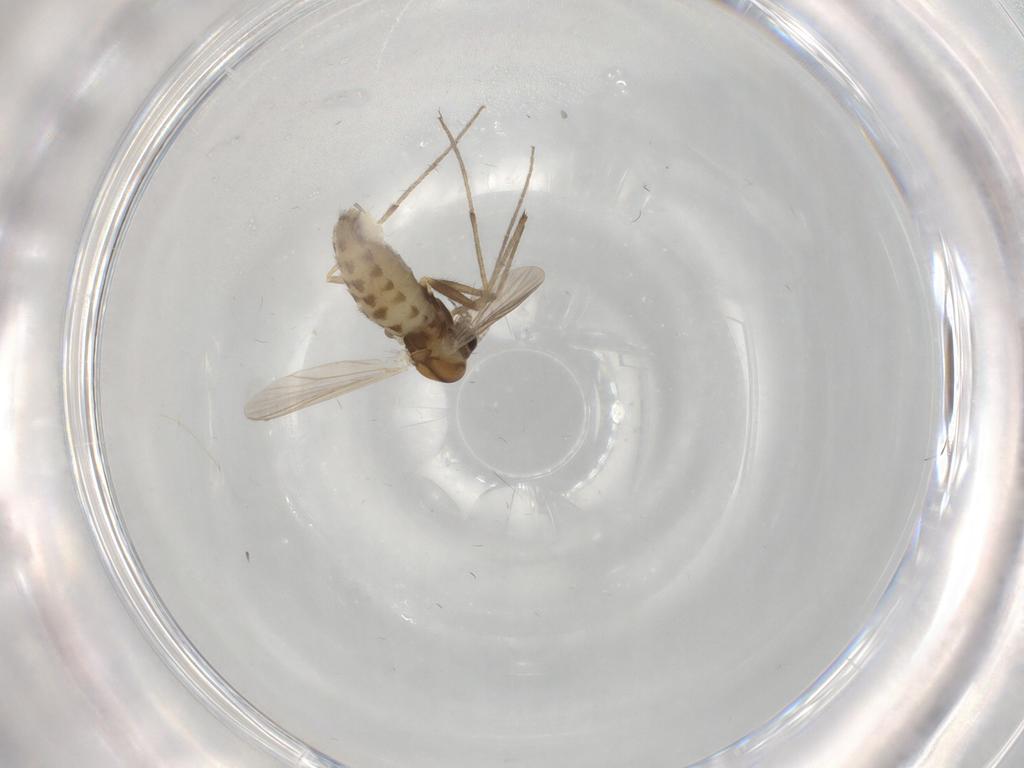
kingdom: Animalia
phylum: Arthropoda
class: Insecta
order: Diptera
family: Chironomidae
